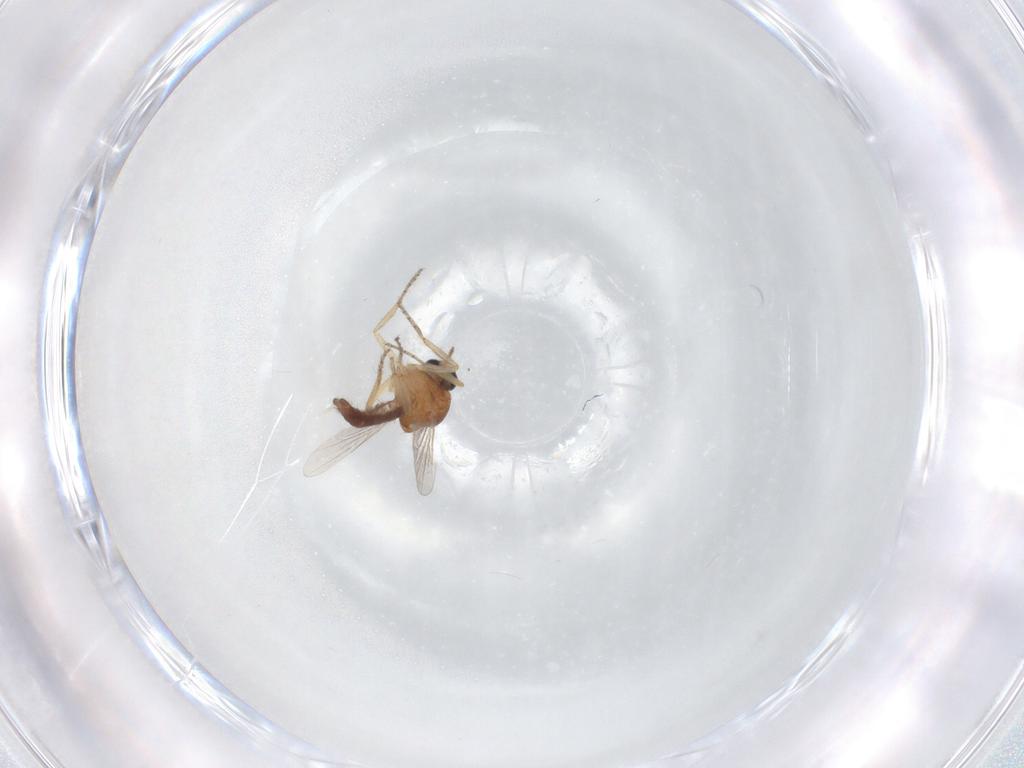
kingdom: Animalia
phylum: Arthropoda
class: Insecta
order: Diptera
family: Ceratopogonidae
